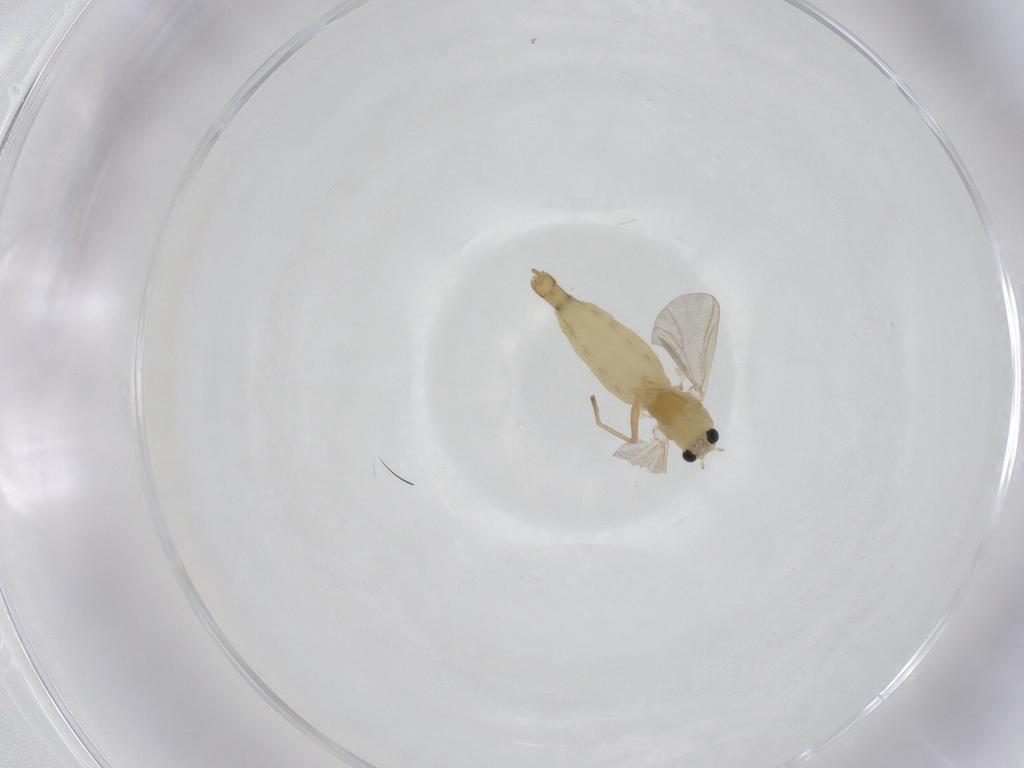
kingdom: Animalia
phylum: Arthropoda
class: Insecta
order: Diptera
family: Chironomidae
